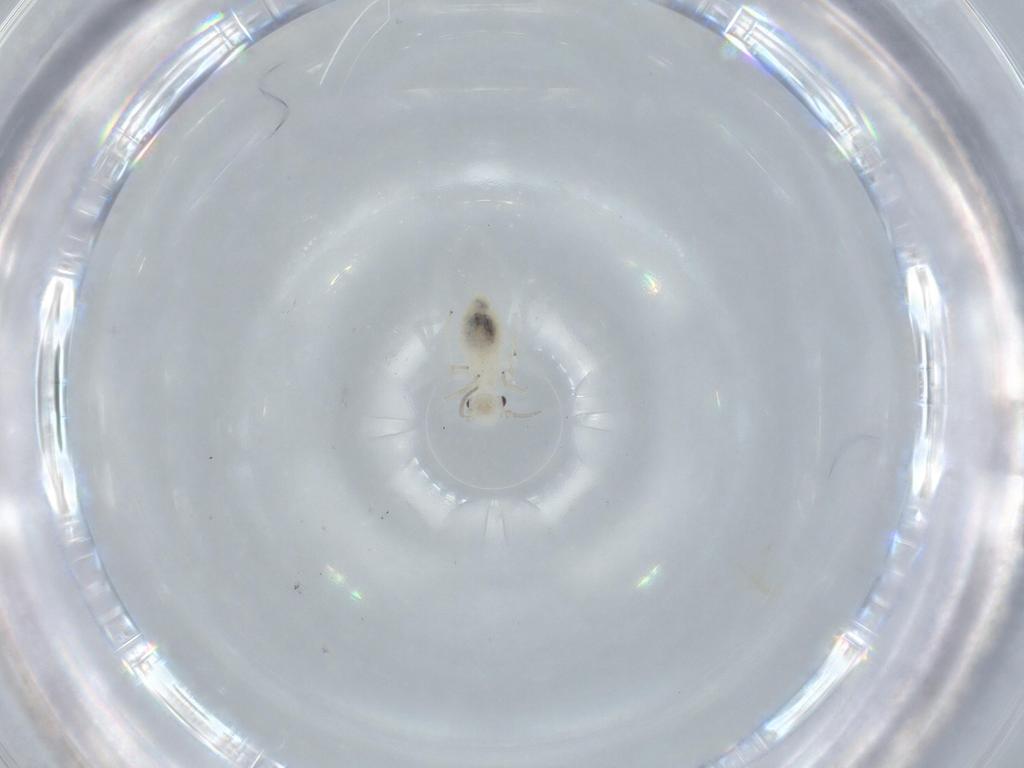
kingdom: Animalia
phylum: Arthropoda
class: Insecta
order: Psocodea
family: Caeciliusidae
